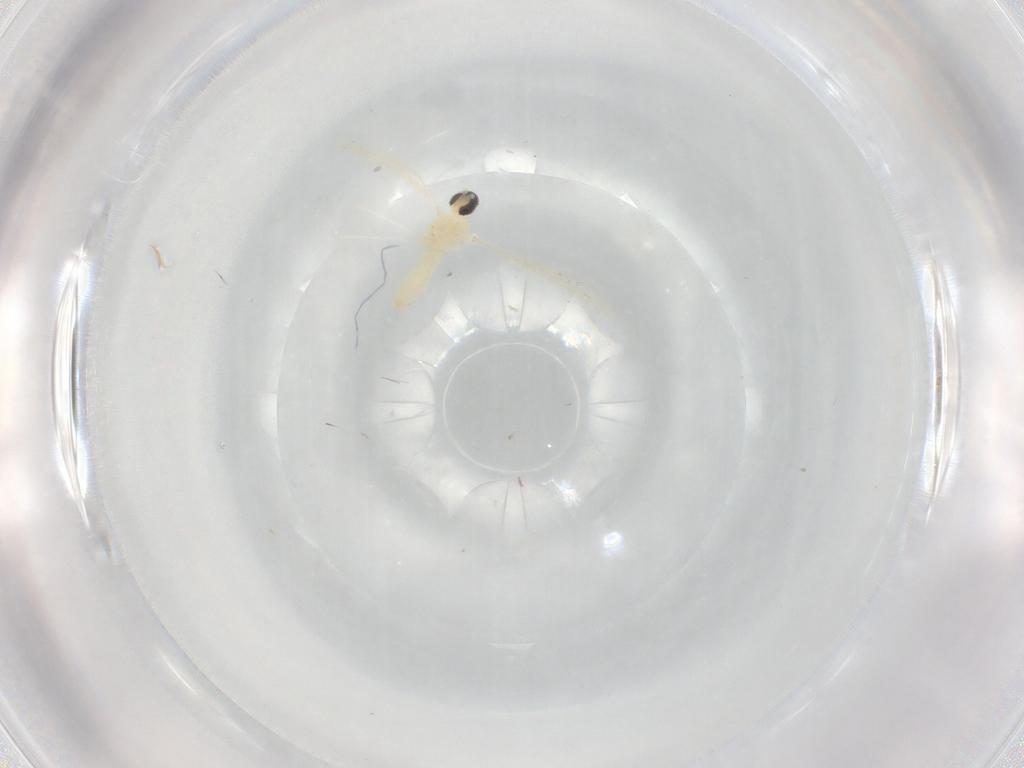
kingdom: Animalia
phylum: Arthropoda
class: Insecta
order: Diptera
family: Cecidomyiidae
